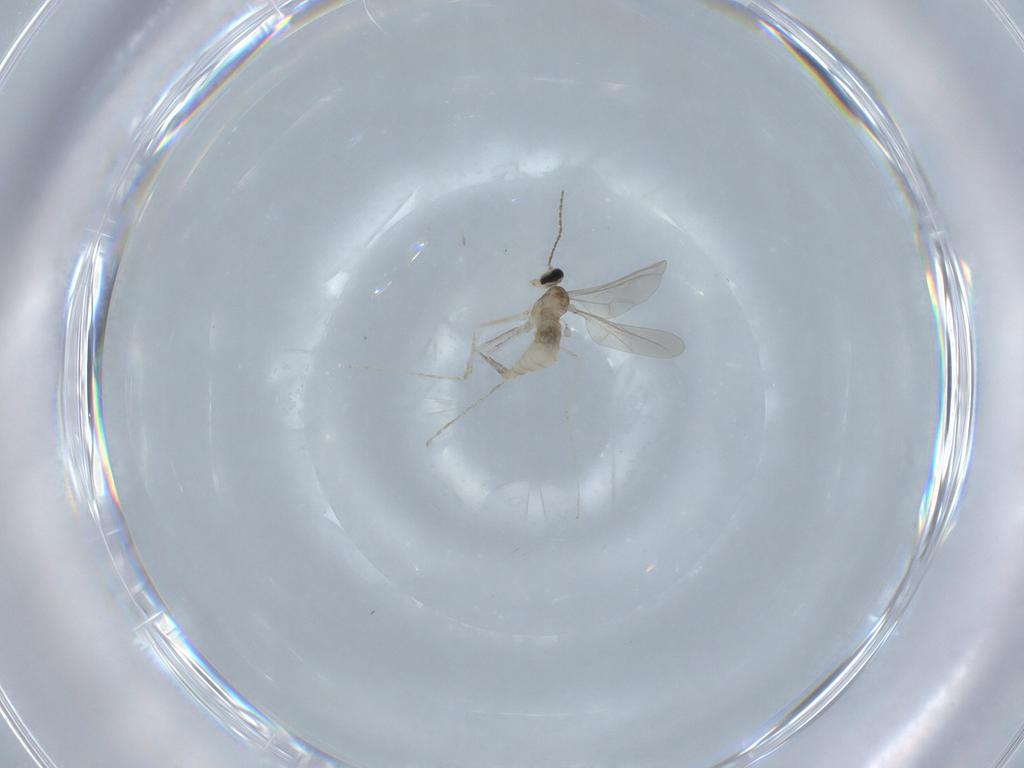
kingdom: Animalia
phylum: Arthropoda
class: Insecta
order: Diptera
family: Cecidomyiidae
